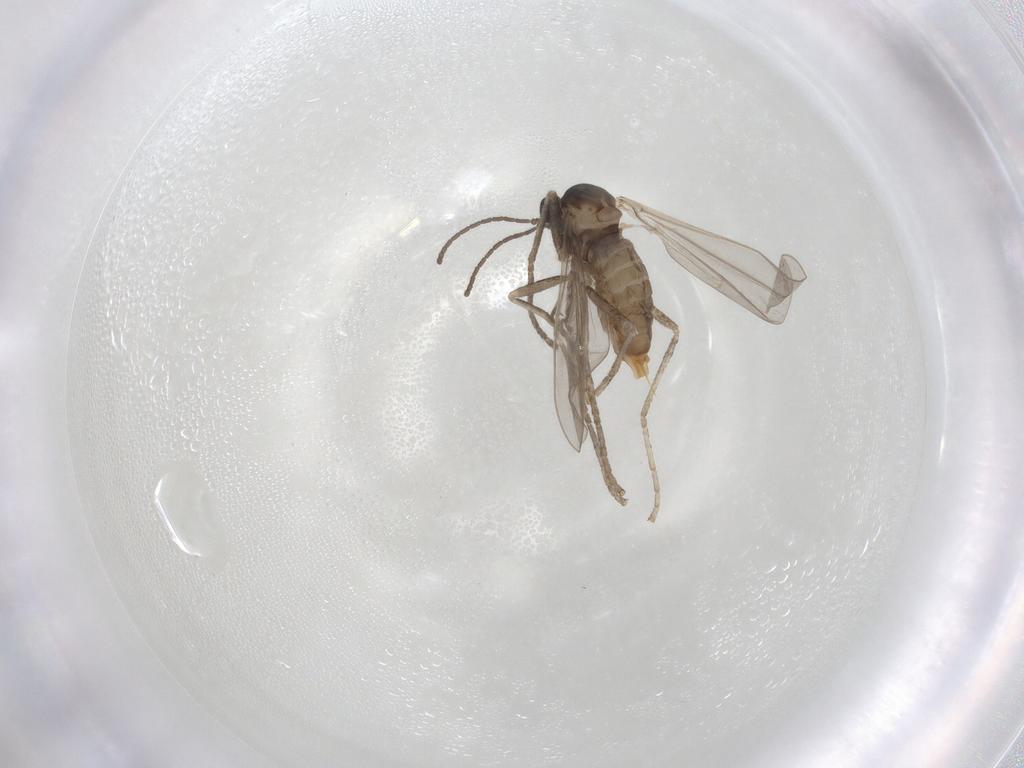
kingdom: Animalia
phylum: Arthropoda
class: Insecta
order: Diptera
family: Cecidomyiidae
